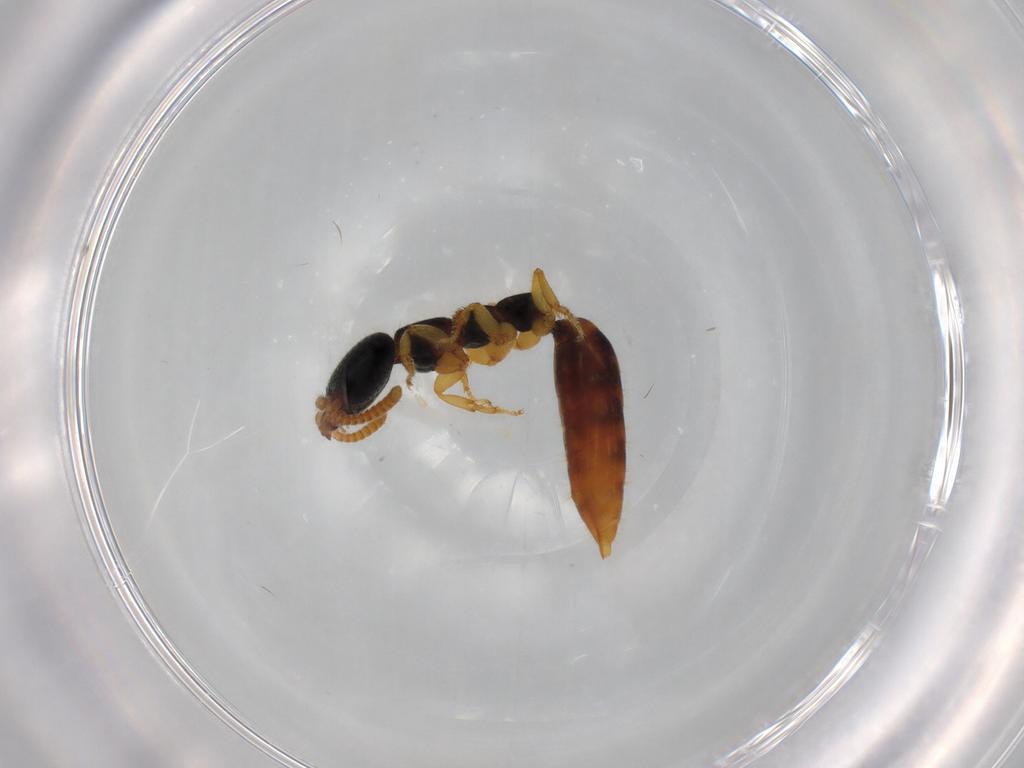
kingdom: Animalia
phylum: Arthropoda
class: Insecta
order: Hymenoptera
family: Bethylidae
